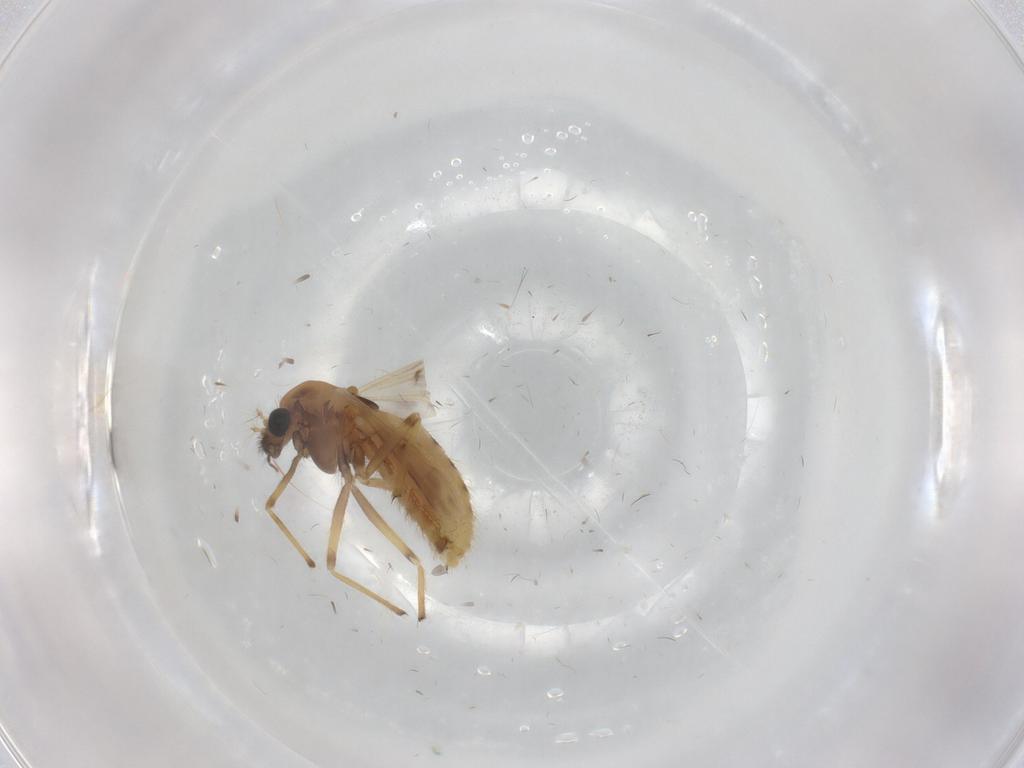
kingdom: Animalia
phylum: Arthropoda
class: Insecta
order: Diptera
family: Chironomidae
